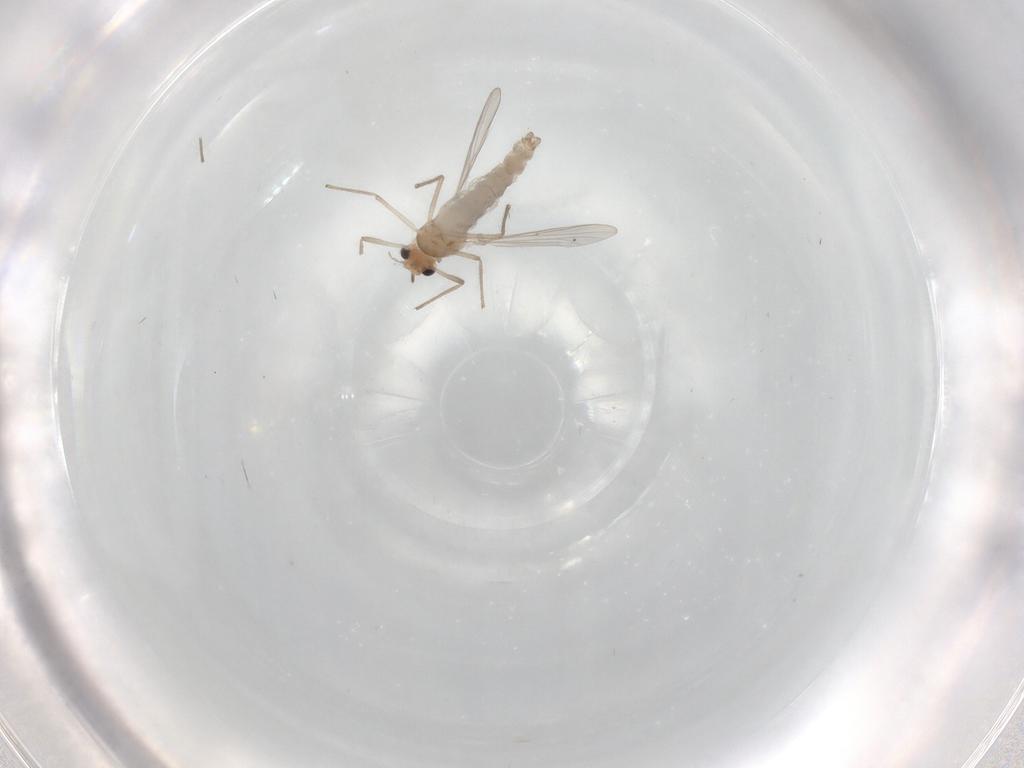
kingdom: Animalia
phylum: Arthropoda
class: Insecta
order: Diptera
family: Chironomidae
